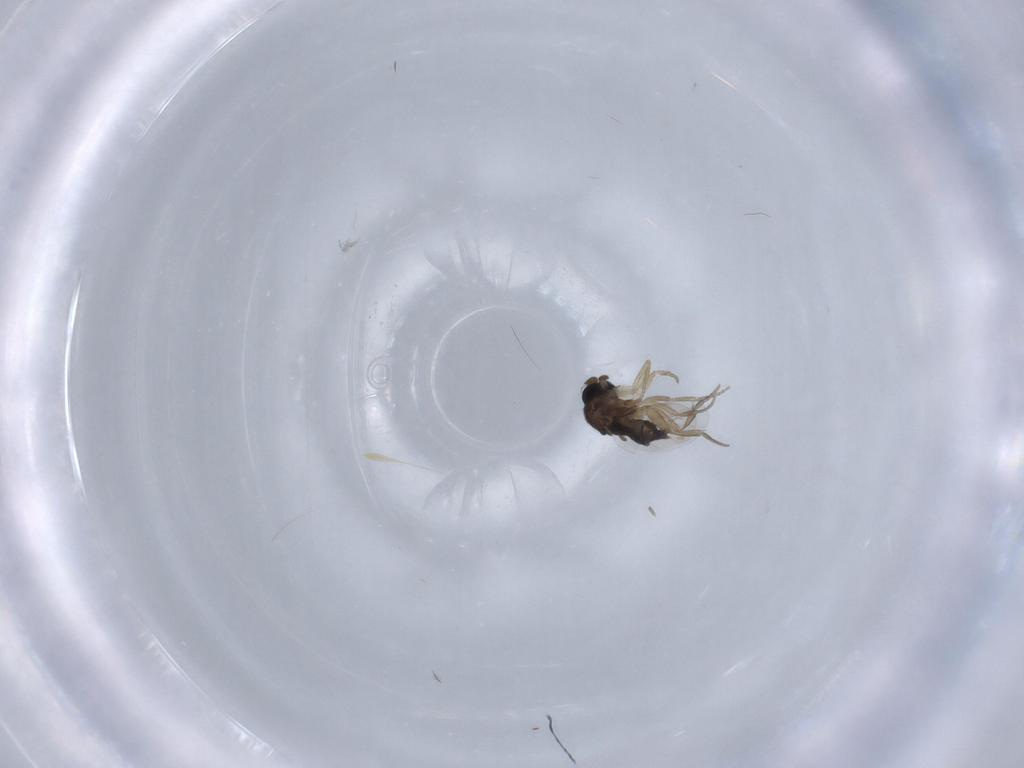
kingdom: Animalia
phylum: Arthropoda
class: Insecta
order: Diptera
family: Phoridae
